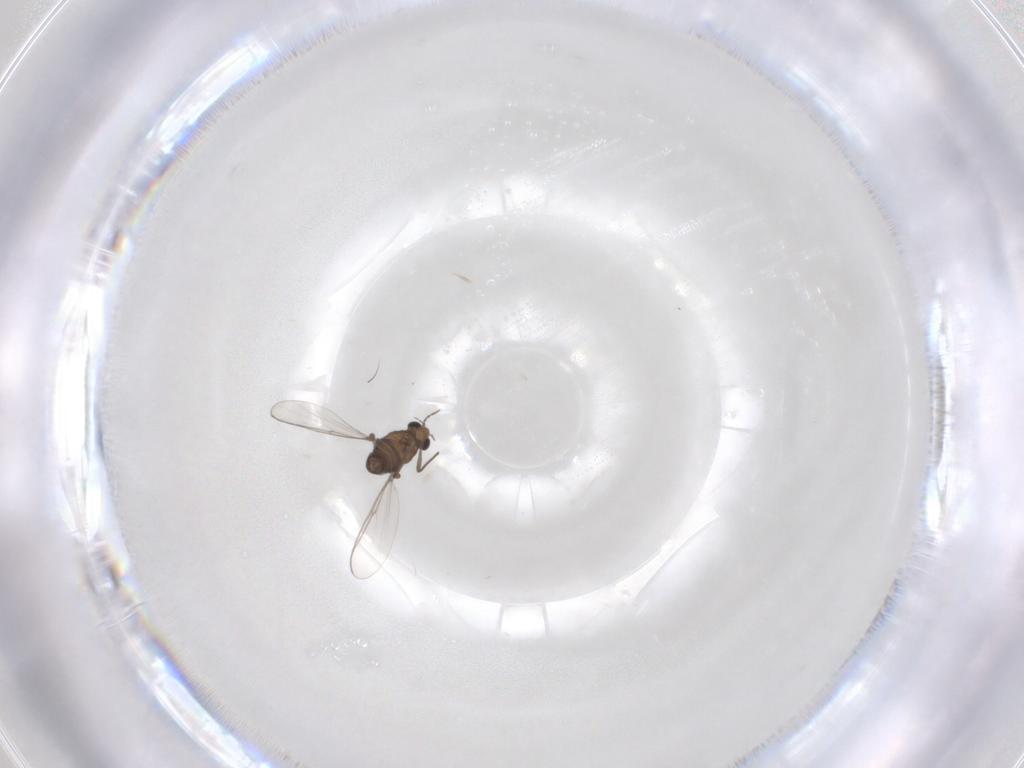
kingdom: Animalia
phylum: Arthropoda
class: Insecta
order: Diptera
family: Chironomidae
